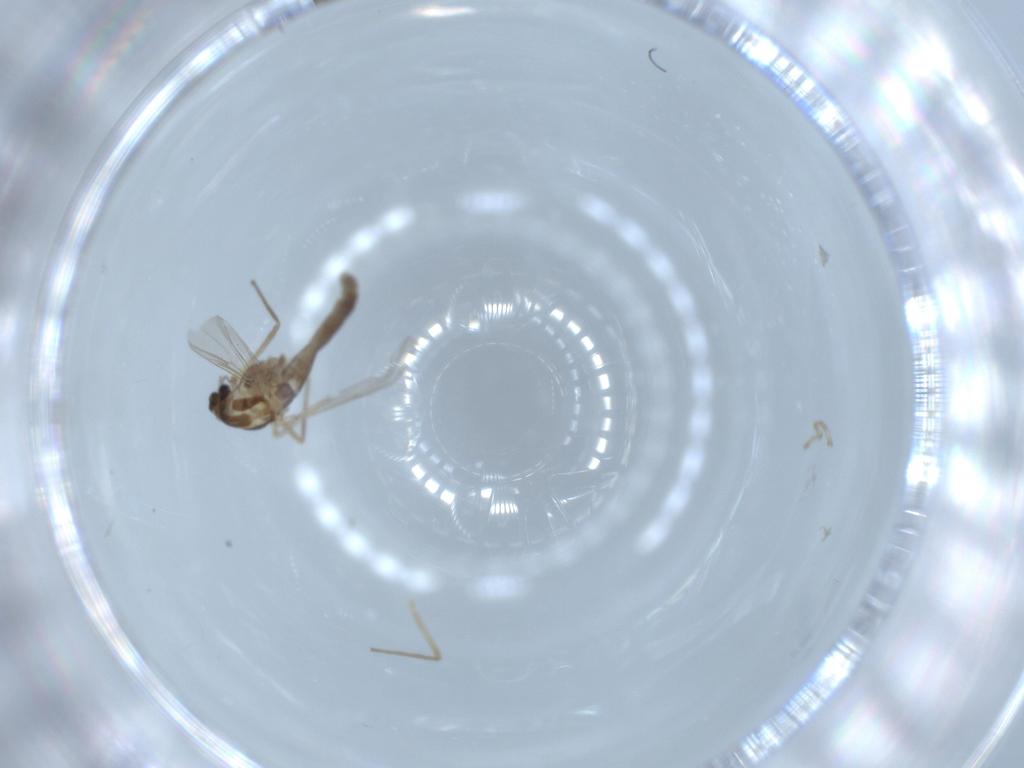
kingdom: Animalia
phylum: Arthropoda
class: Insecta
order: Diptera
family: Chironomidae
